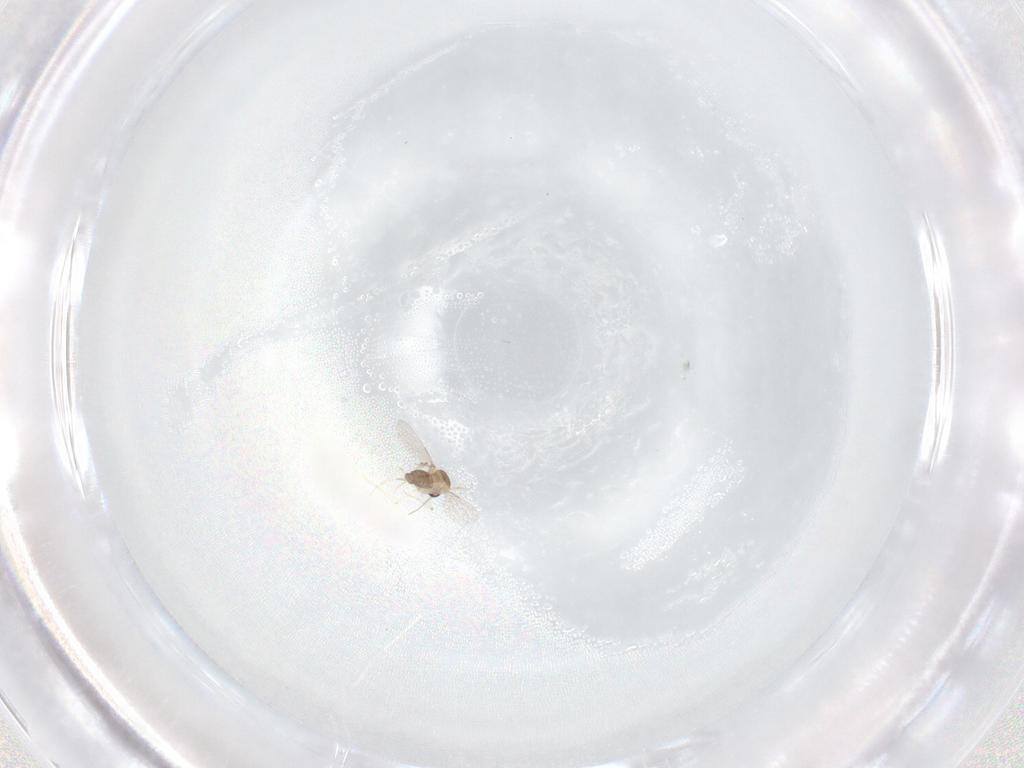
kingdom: Animalia
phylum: Arthropoda
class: Insecta
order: Diptera
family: Ceratopogonidae
